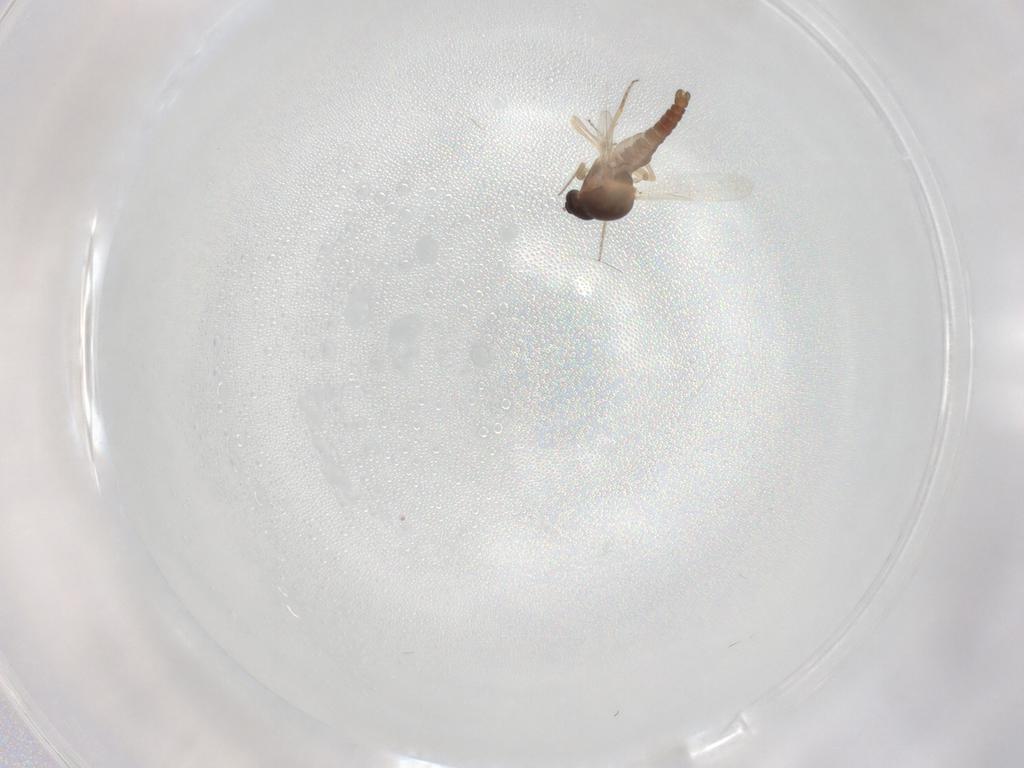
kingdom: Animalia
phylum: Arthropoda
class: Insecta
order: Diptera
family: Ceratopogonidae
